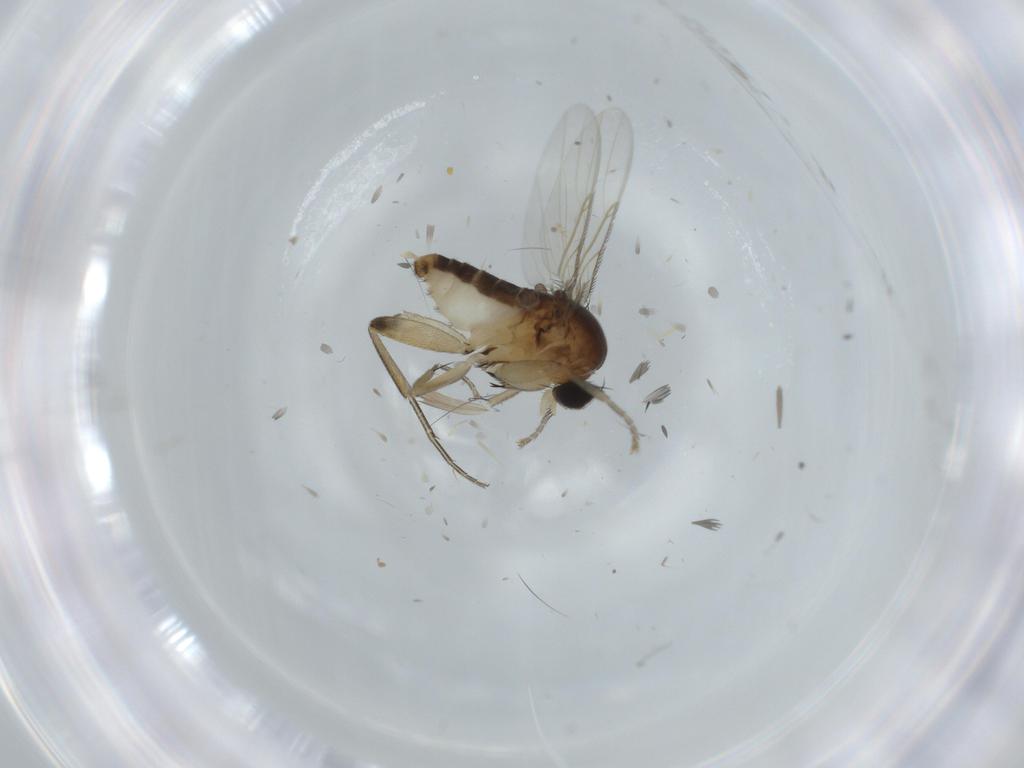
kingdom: Animalia
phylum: Arthropoda
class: Insecta
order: Diptera
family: Phoridae
